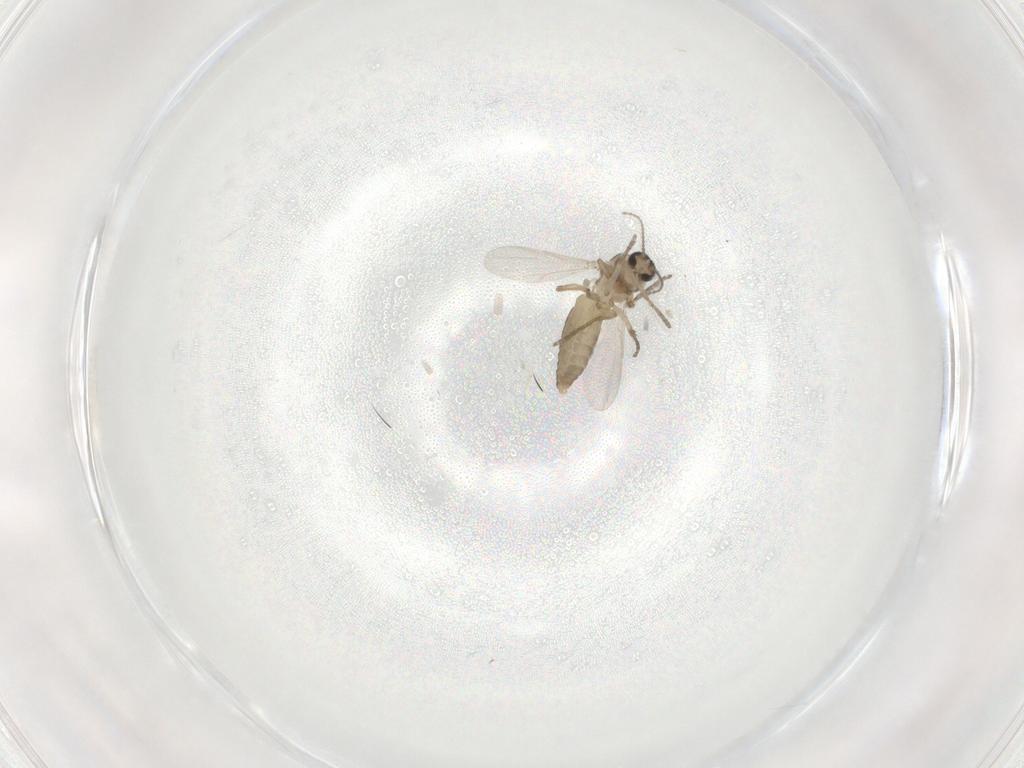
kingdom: Animalia
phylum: Arthropoda
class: Insecta
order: Diptera
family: Ceratopogonidae
